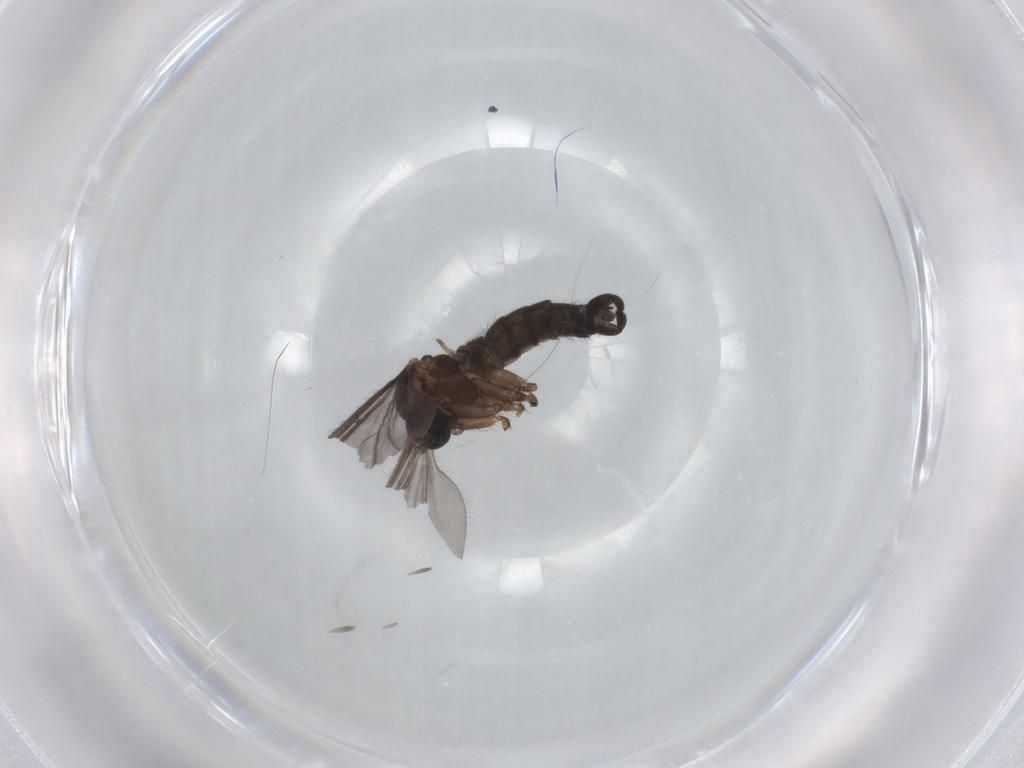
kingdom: Animalia
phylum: Arthropoda
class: Insecta
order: Diptera
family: Sciaridae
